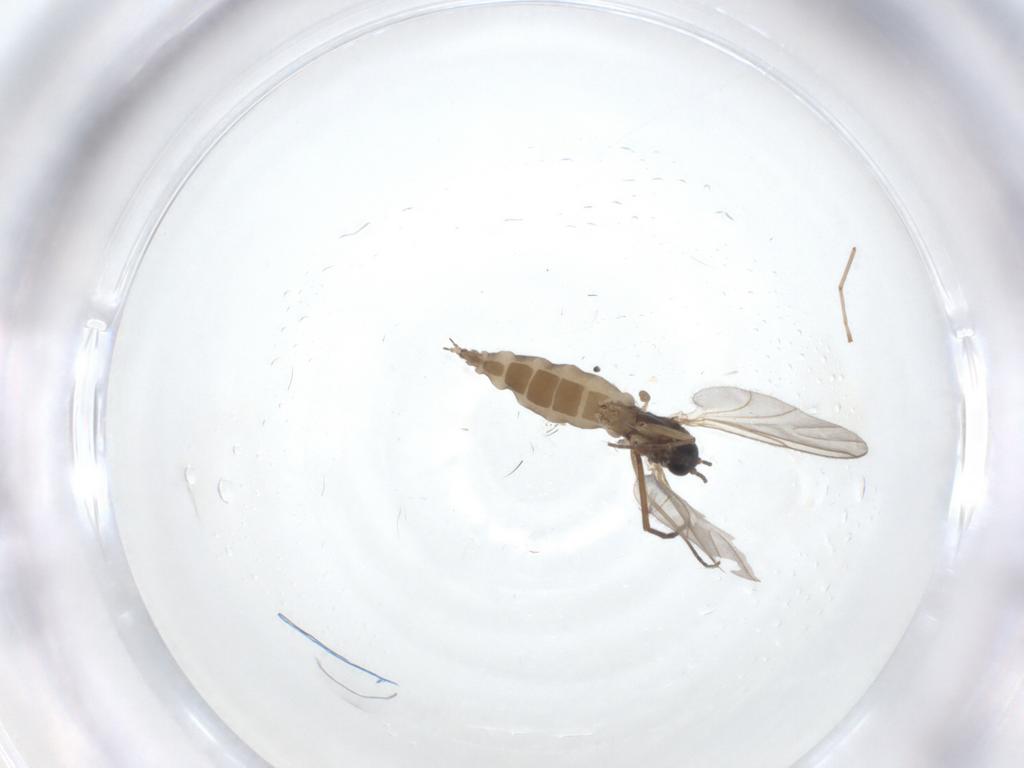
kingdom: Animalia
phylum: Arthropoda
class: Insecta
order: Diptera
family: Sciaridae
